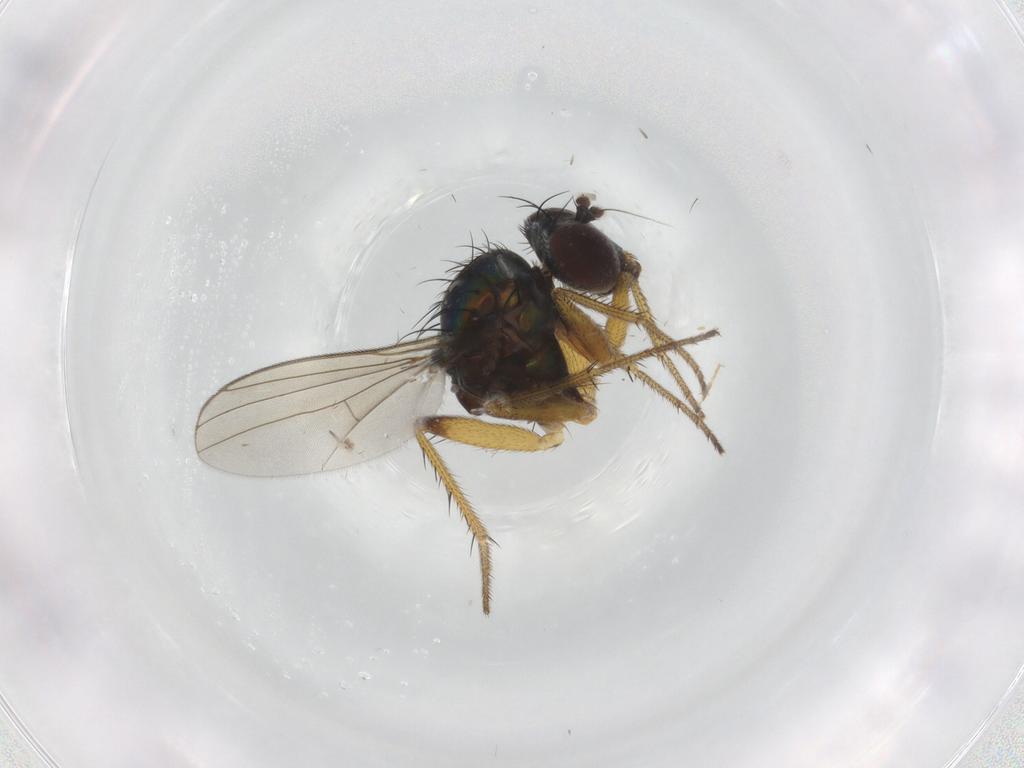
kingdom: Animalia
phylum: Arthropoda
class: Insecta
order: Diptera
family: Dolichopodidae
